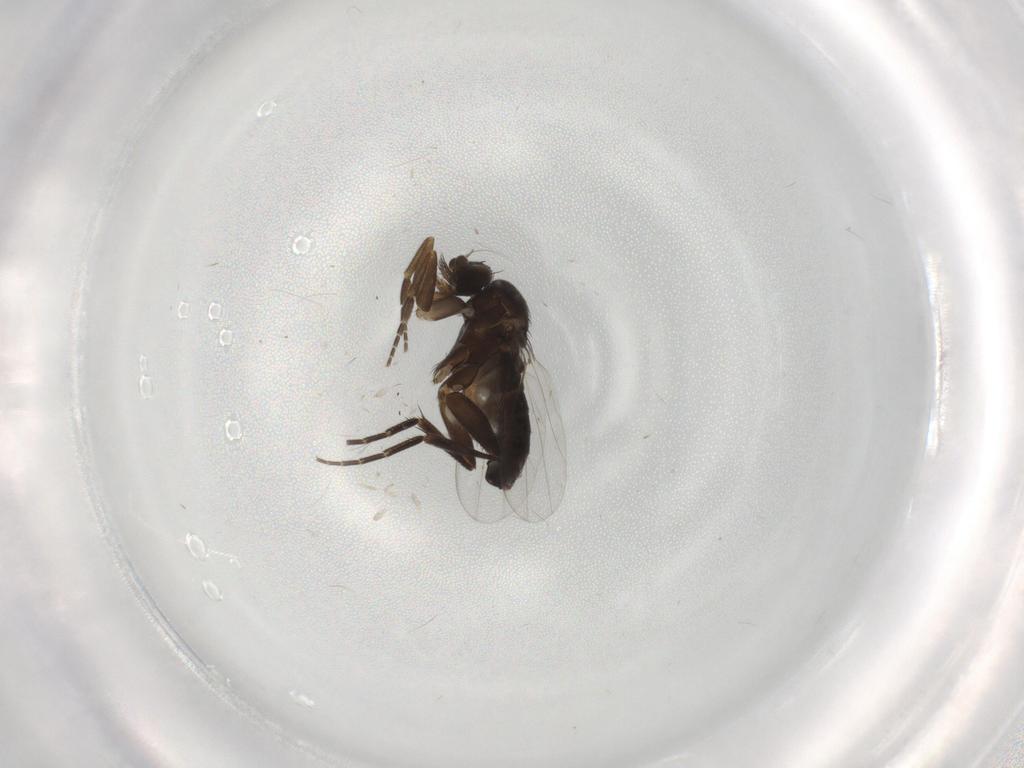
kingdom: Animalia
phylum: Arthropoda
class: Insecta
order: Diptera
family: Phoridae
